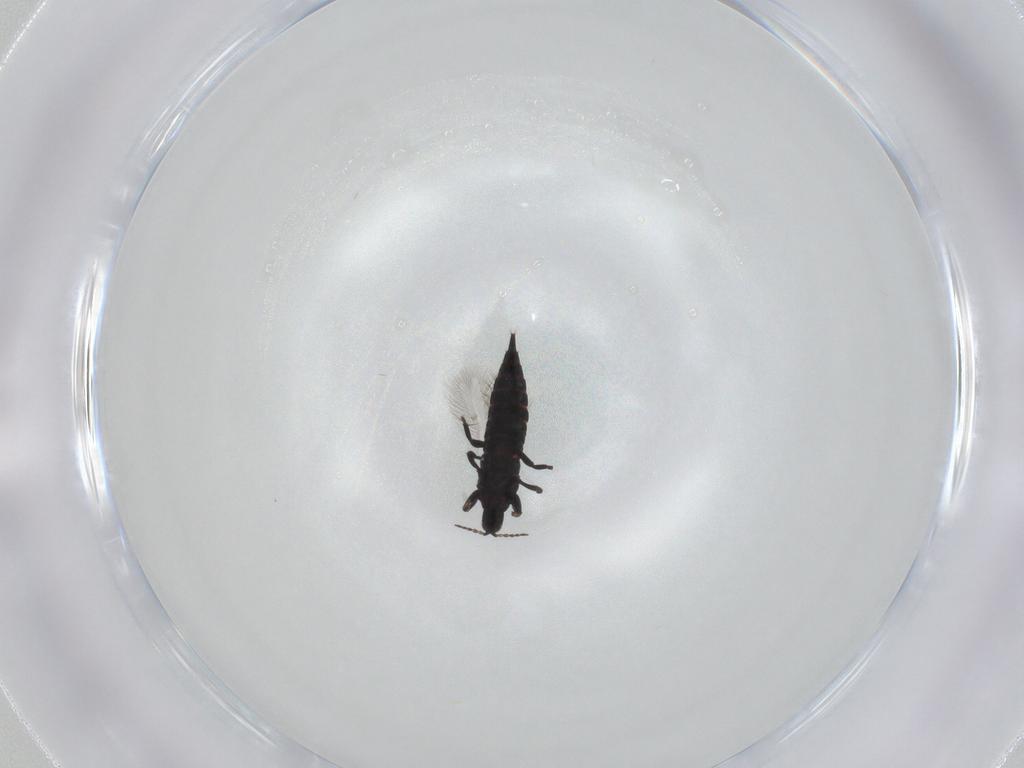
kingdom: Animalia
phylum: Arthropoda
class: Insecta
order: Thysanoptera
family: Phlaeothripidae
